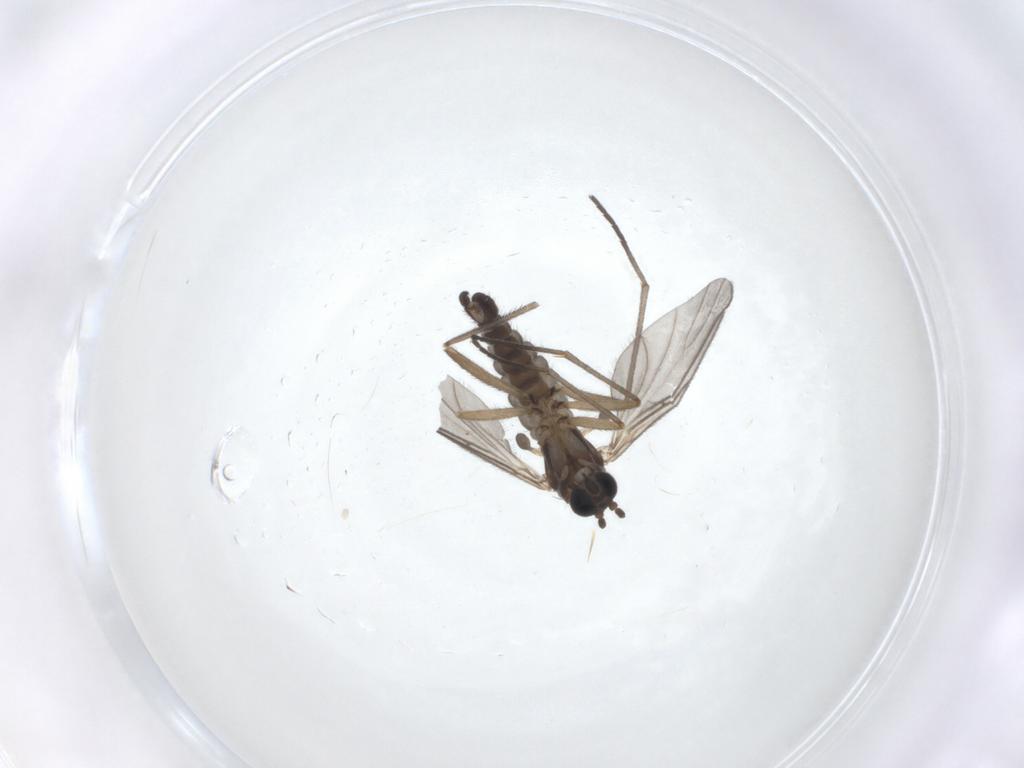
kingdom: Animalia
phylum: Arthropoda
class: Insecta
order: Diptera
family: Sciaridae
